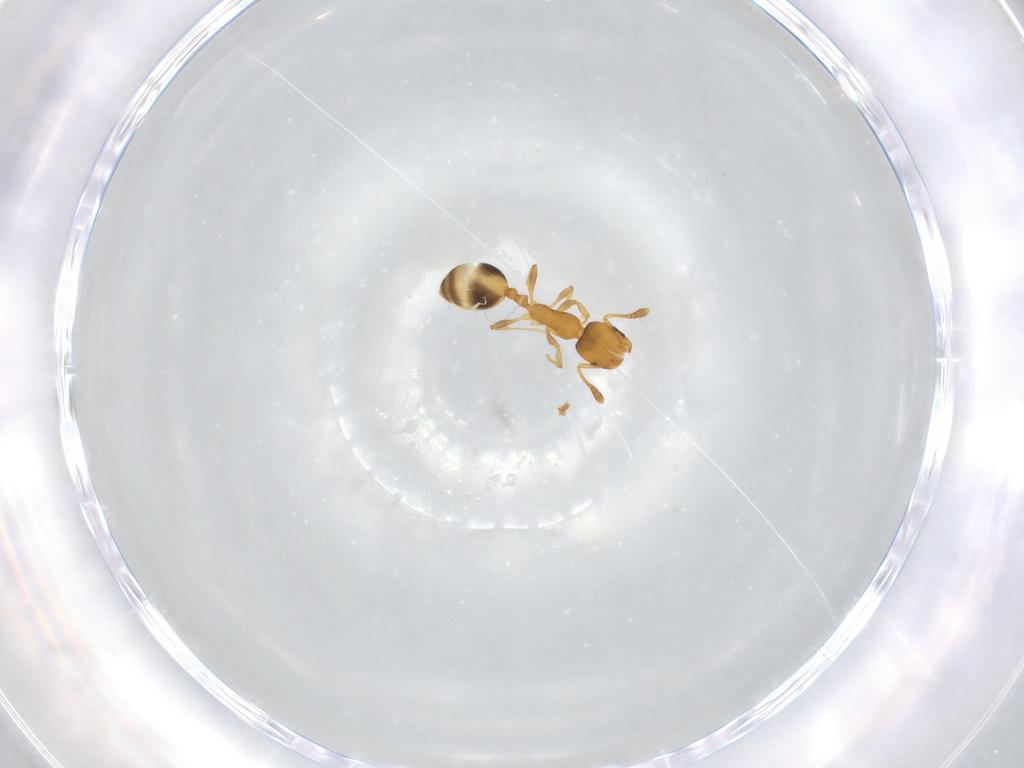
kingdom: Animalia
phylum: Arthropoda
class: Insecta
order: Hymenoptera
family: Formicidae
